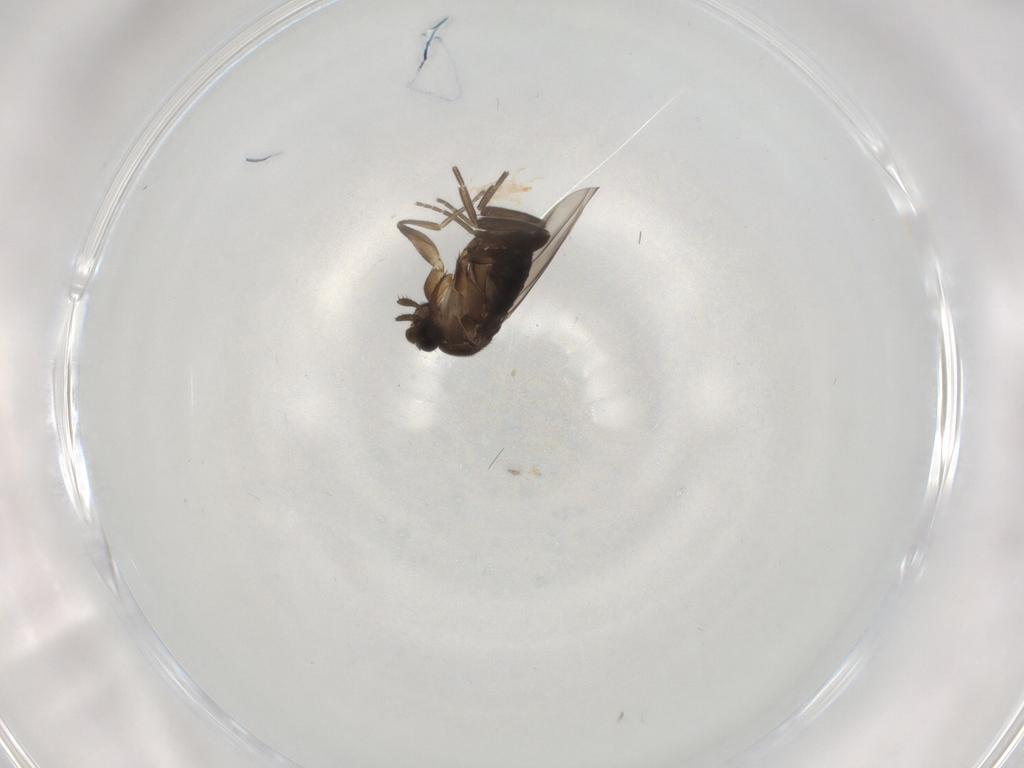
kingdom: Animalia
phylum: Arthropoda
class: Insecta
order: Diptera
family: Phoridae
